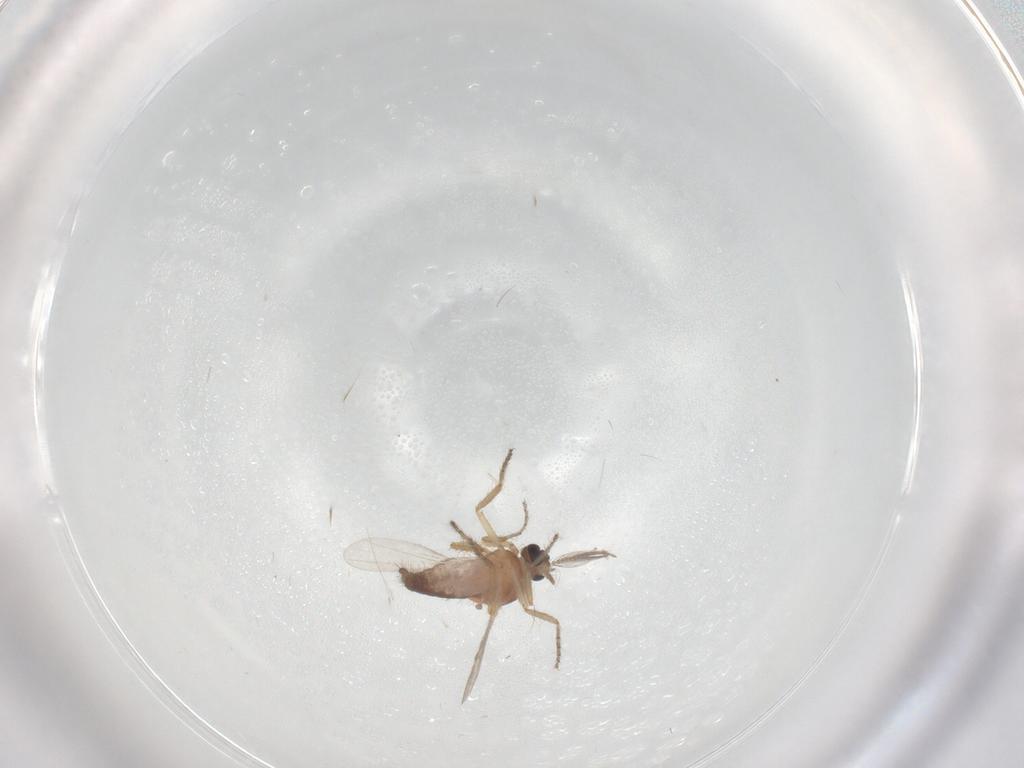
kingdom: Animalia
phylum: Arthropoda
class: Insecta
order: Diptera
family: Ceratopogonidae
